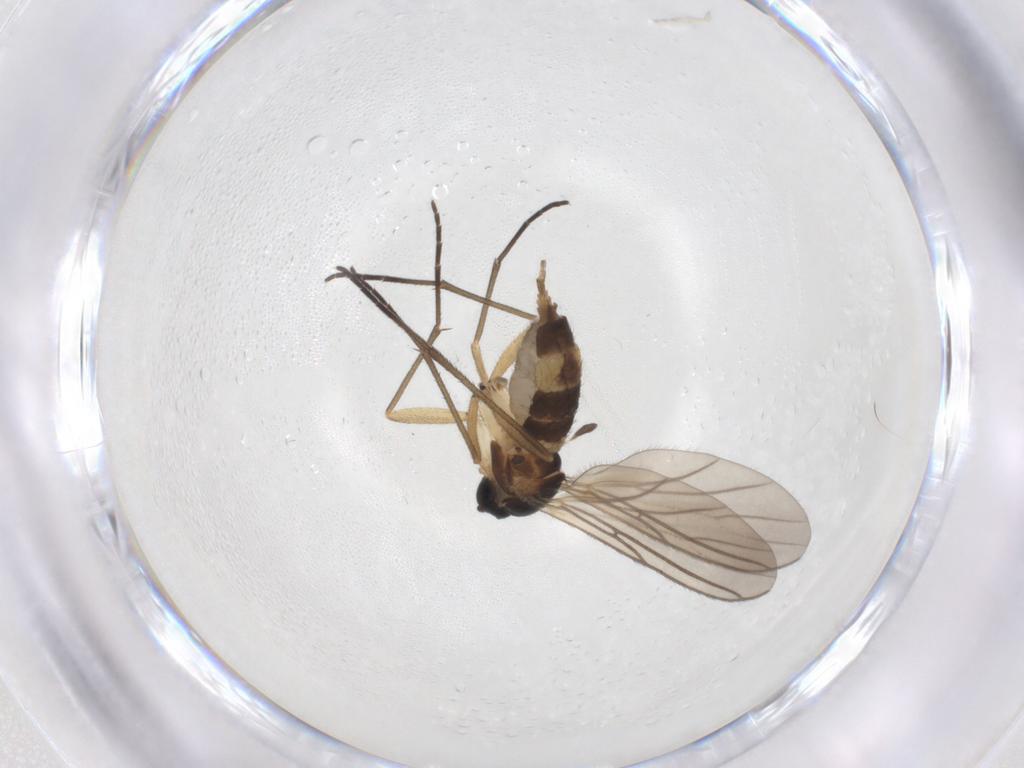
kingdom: Animalia
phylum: Arthropoda
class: Insecta
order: Diptera
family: Sciaridae
